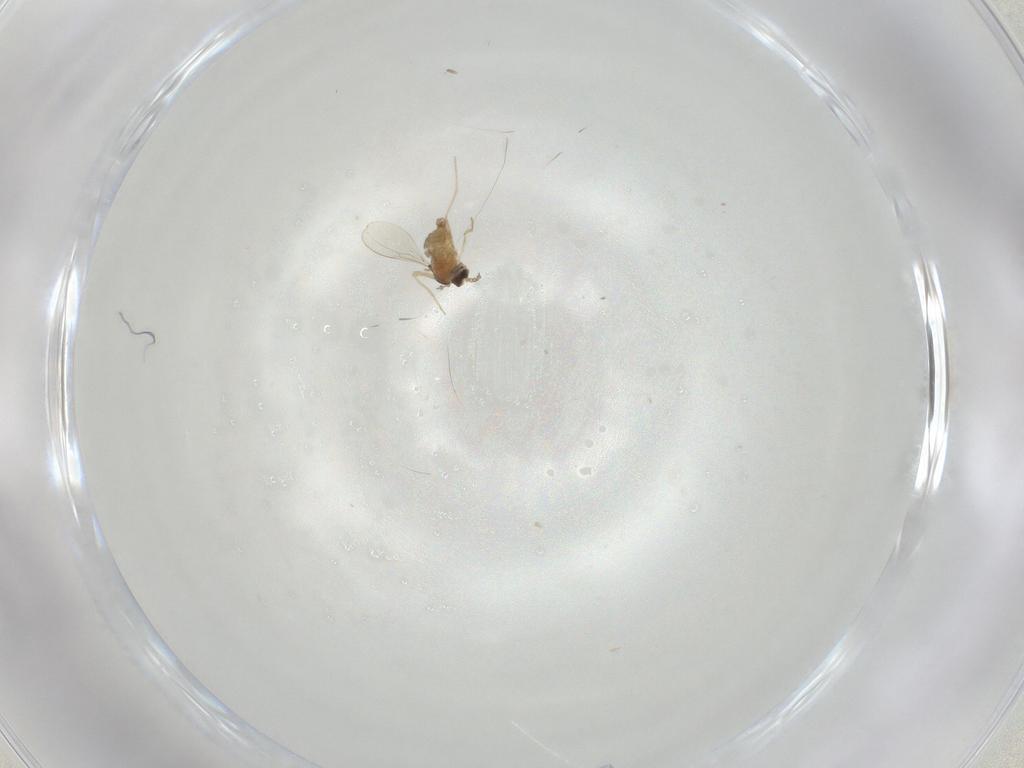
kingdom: Animalia
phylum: Arthropoda
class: Insecta
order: Diptera
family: Cecidomyiidae
